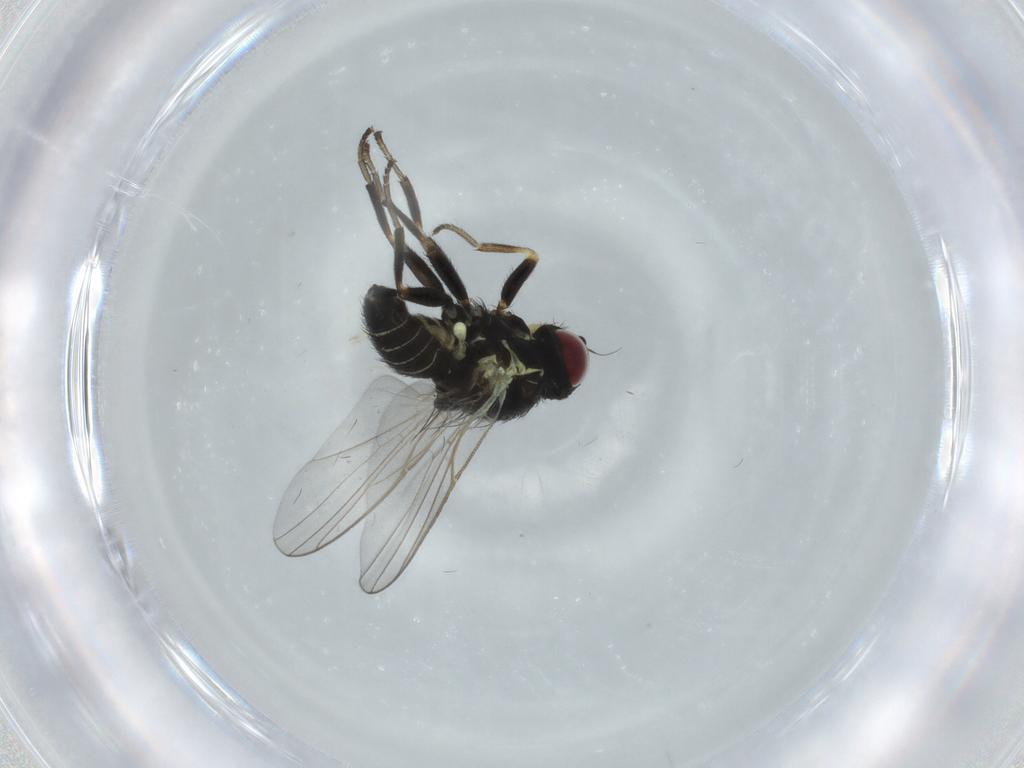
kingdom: Animalia
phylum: Arthropoda
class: Insecta
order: Diptera
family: Agromyzidae
